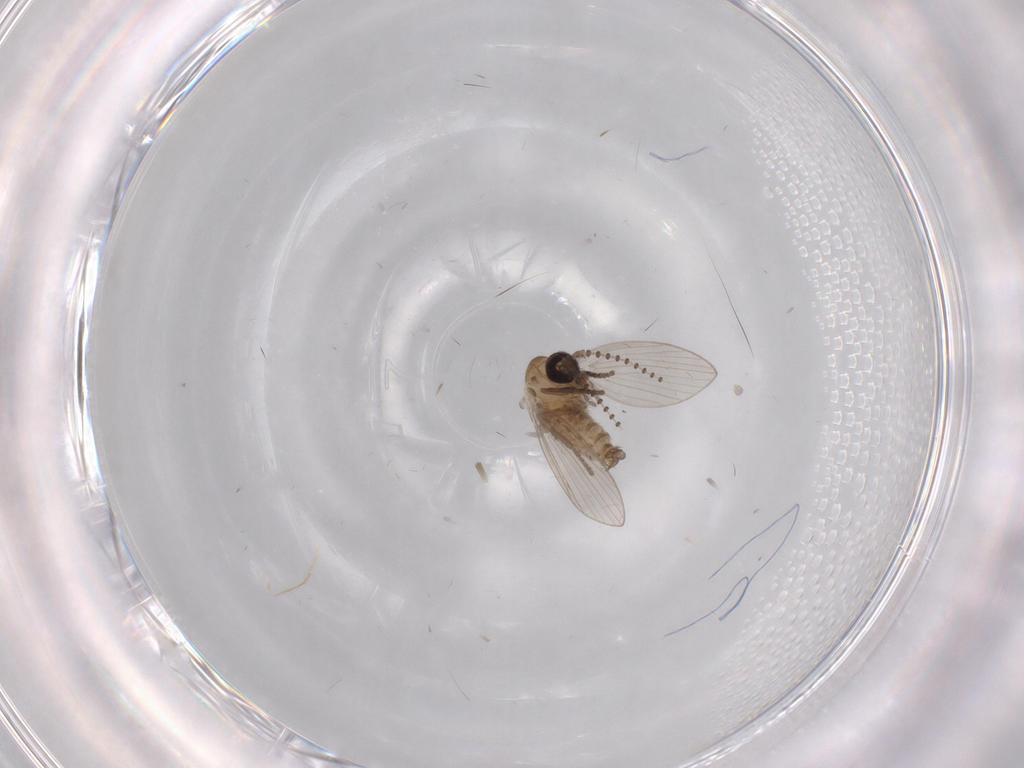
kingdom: Animalia
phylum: Arthropoda
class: Insecta
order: Diptera
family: Psychodidae
